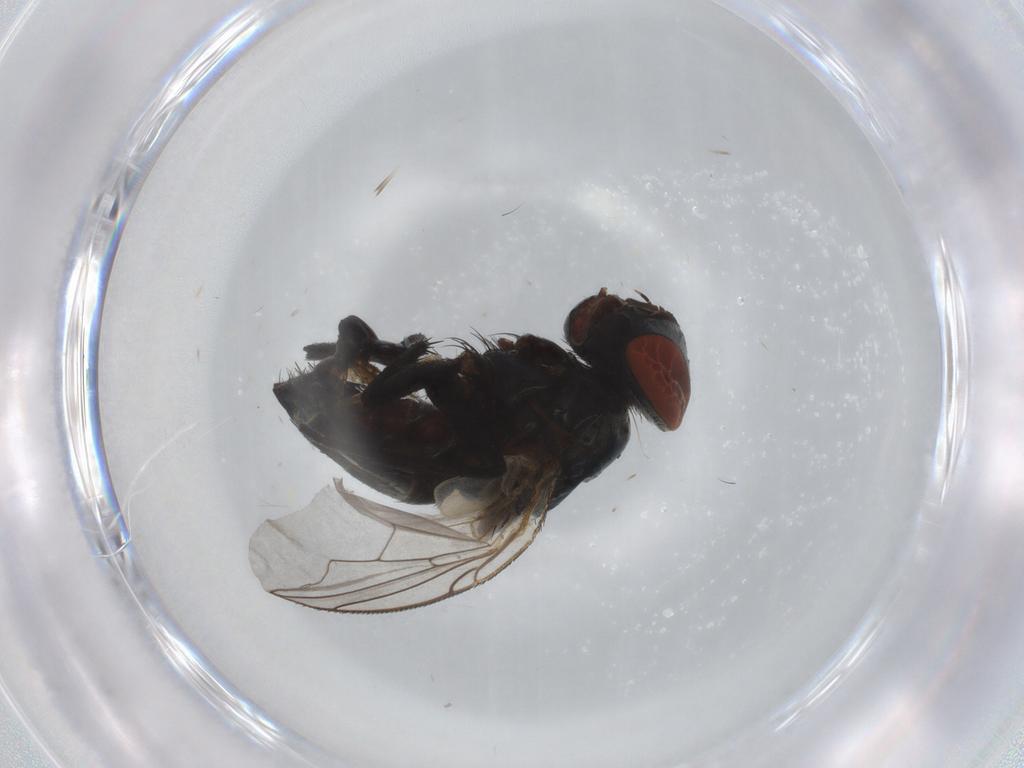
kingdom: Animalia
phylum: Arthropoda
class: Insecta
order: Diptera
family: Sarcophagidae
